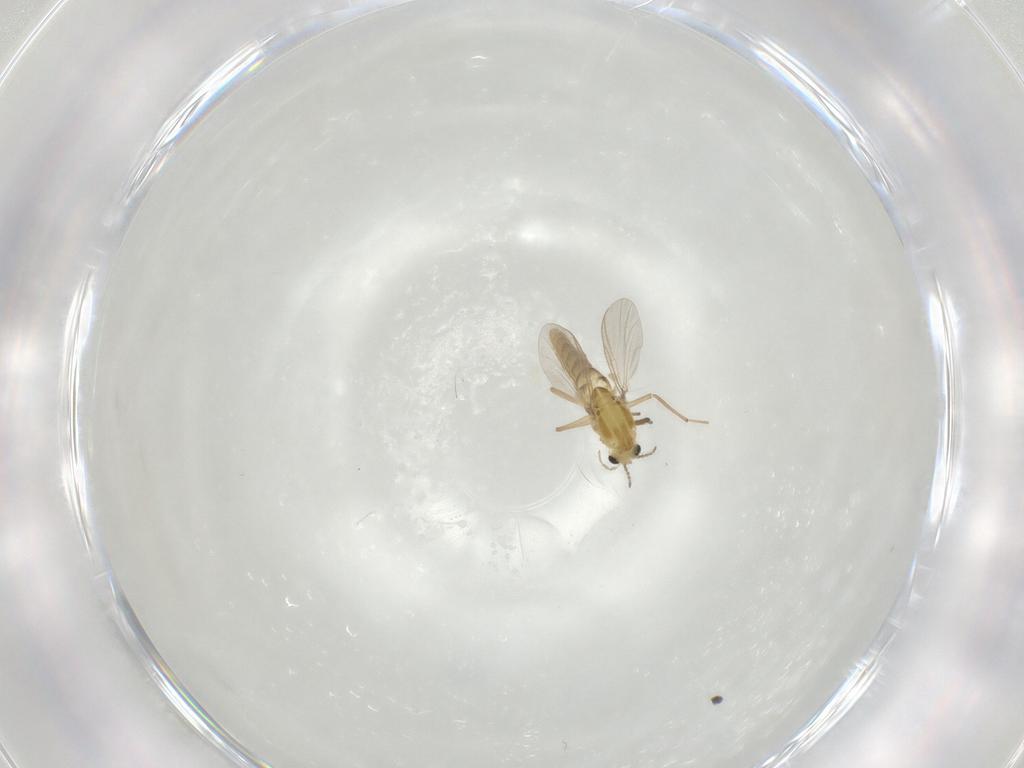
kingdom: Animalia
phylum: Arthropoda
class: Insecta
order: Diptera
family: Chironomidae
